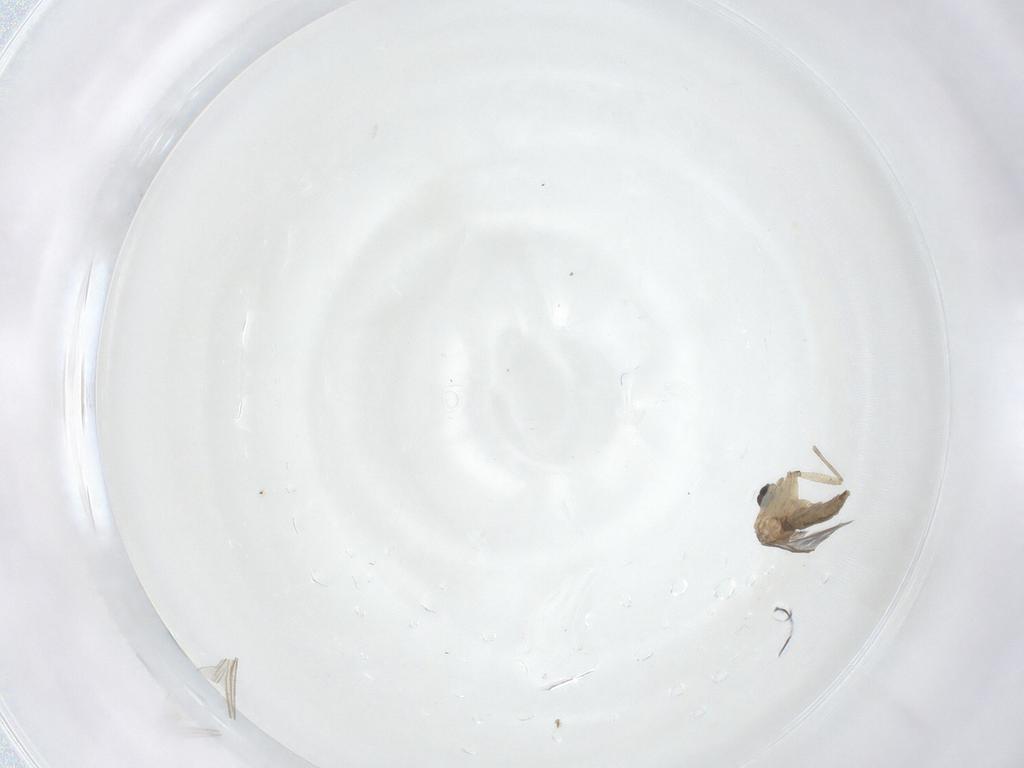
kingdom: Animalia
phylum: Arthropoda
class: Insecta
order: Diptera
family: Sciaridae
